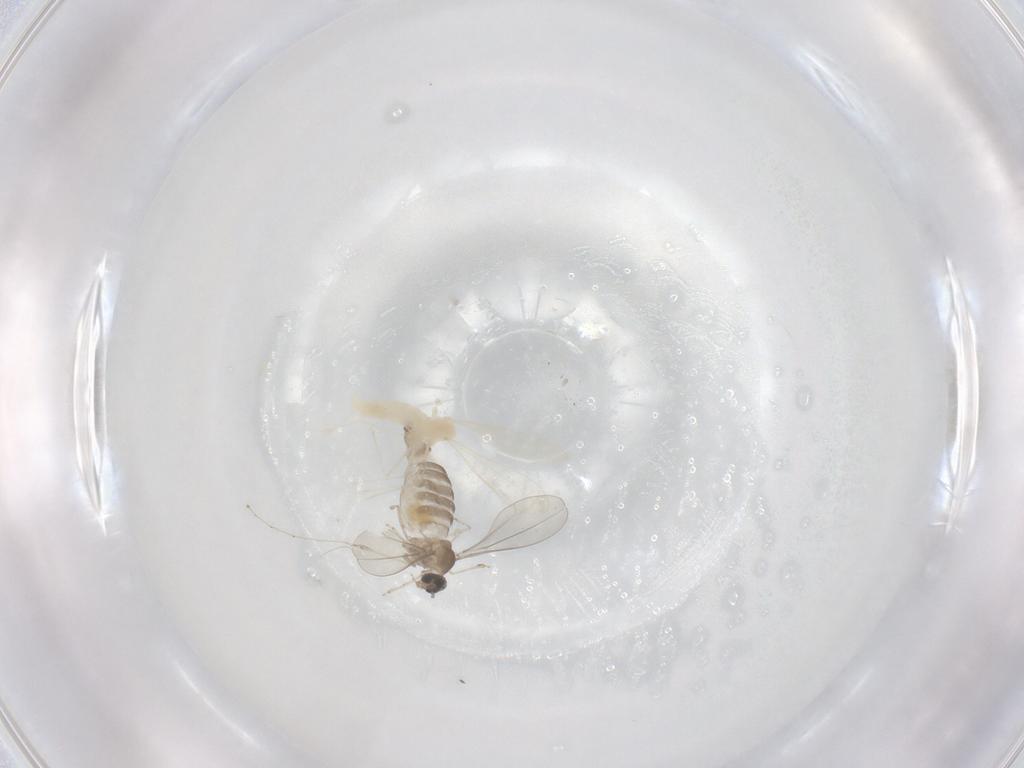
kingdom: Animalia
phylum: Arthropoda
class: Insecta
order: Diptera
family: Cecidomyiidae
